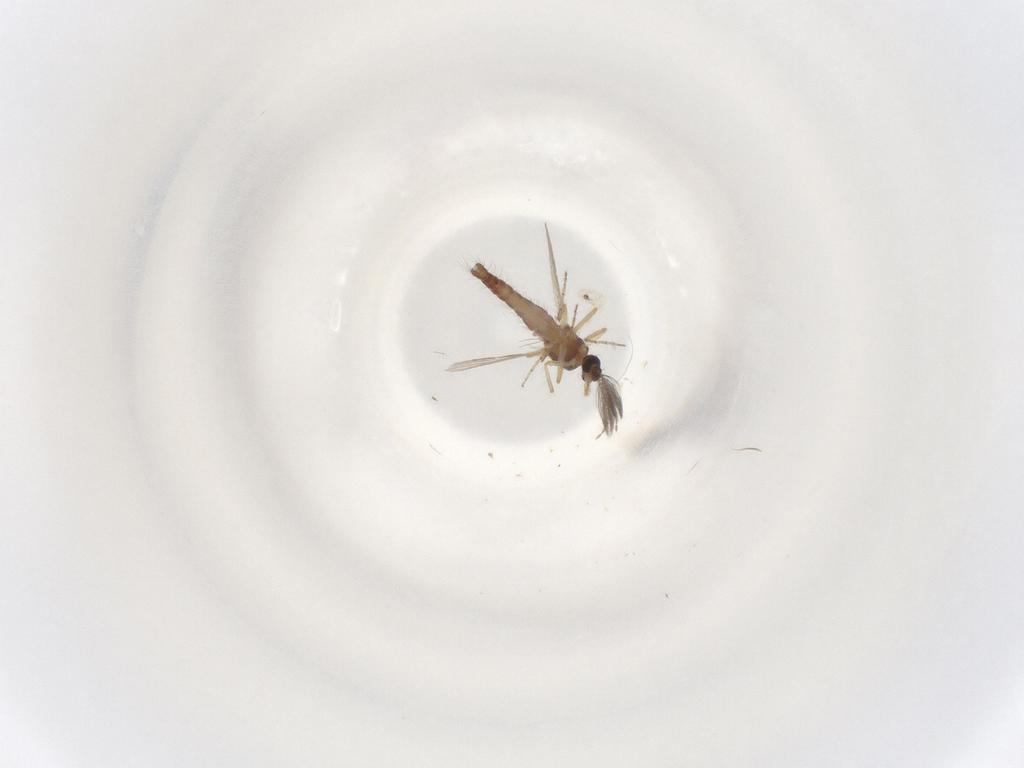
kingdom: Animalia
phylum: Arthropoda
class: Insecta
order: Diptera
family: Ceratopogonidae
